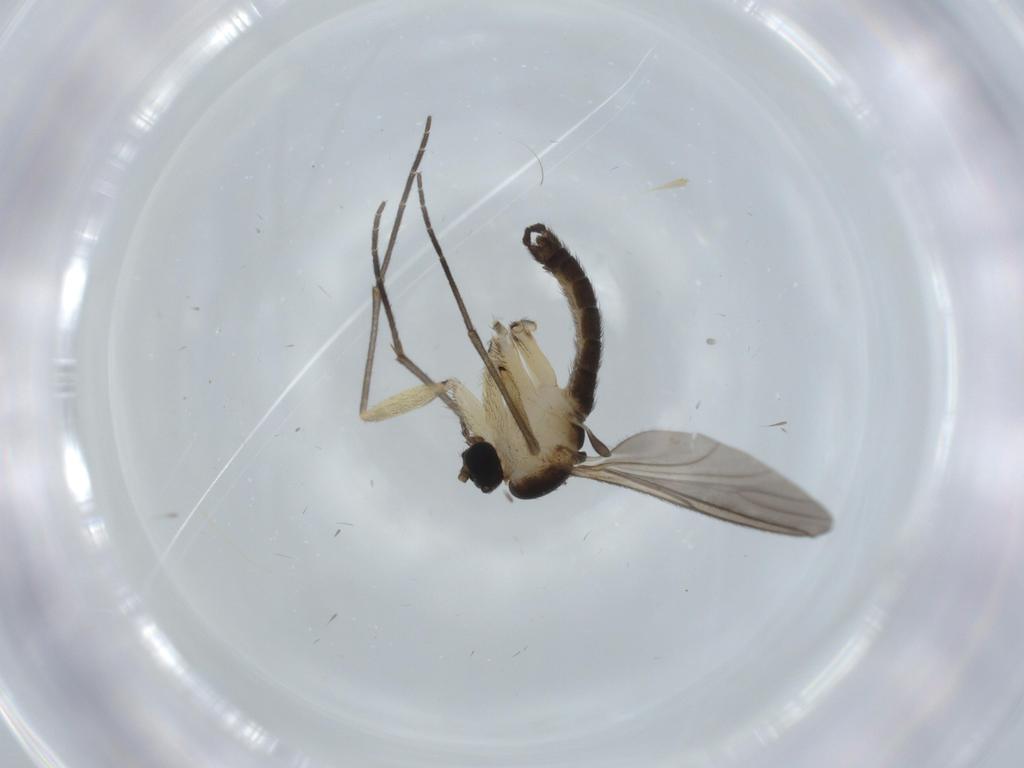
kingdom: Animalia
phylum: Arthropoda
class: Insecta
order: Diptera
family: Sciaridae
